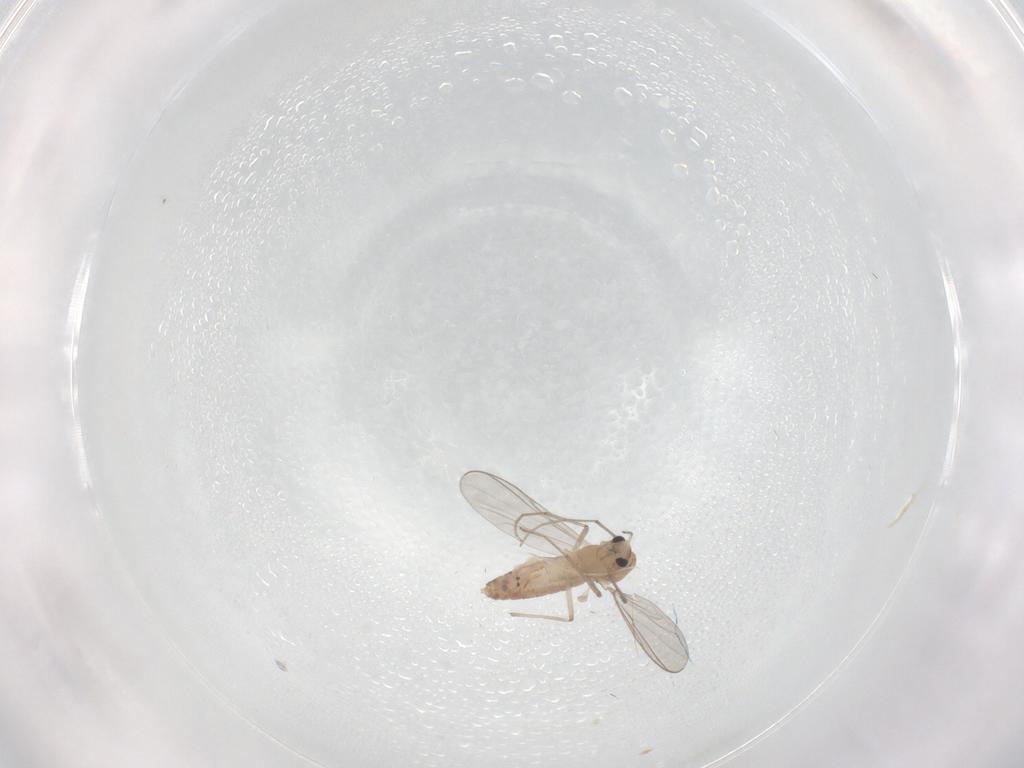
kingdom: Animalia
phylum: Arthropoda
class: Insecta
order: Diptera
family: Chironomidae
